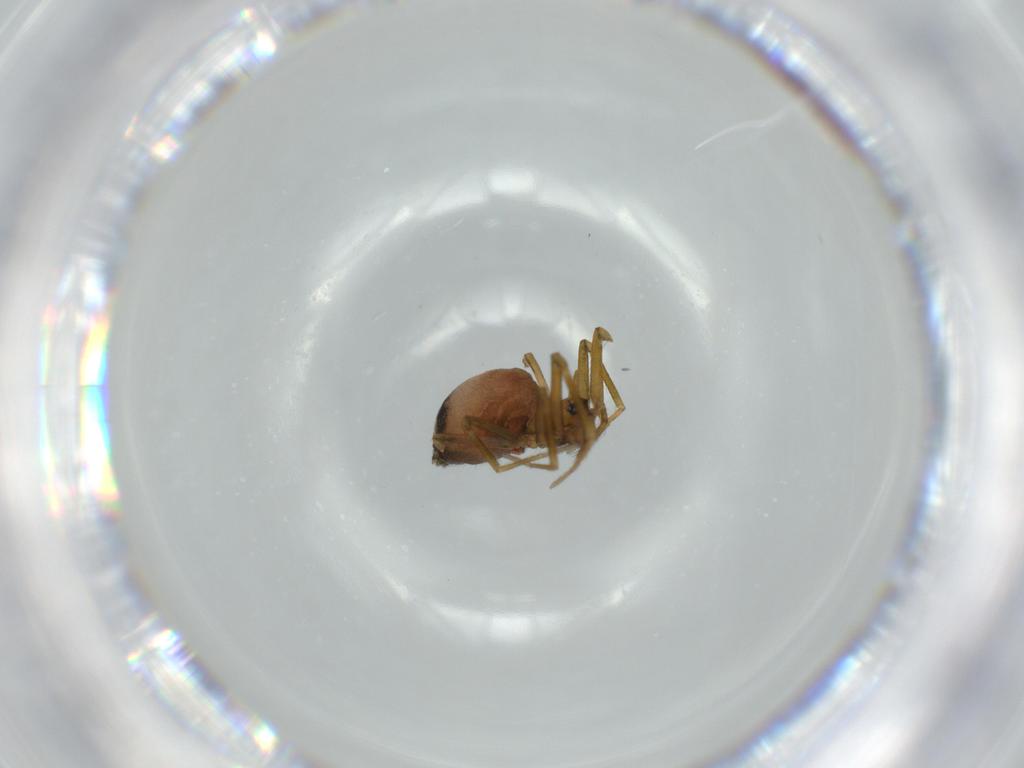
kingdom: Animalia
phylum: Arthropoda
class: Arachnida
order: Araneae
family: Linyphiidae
